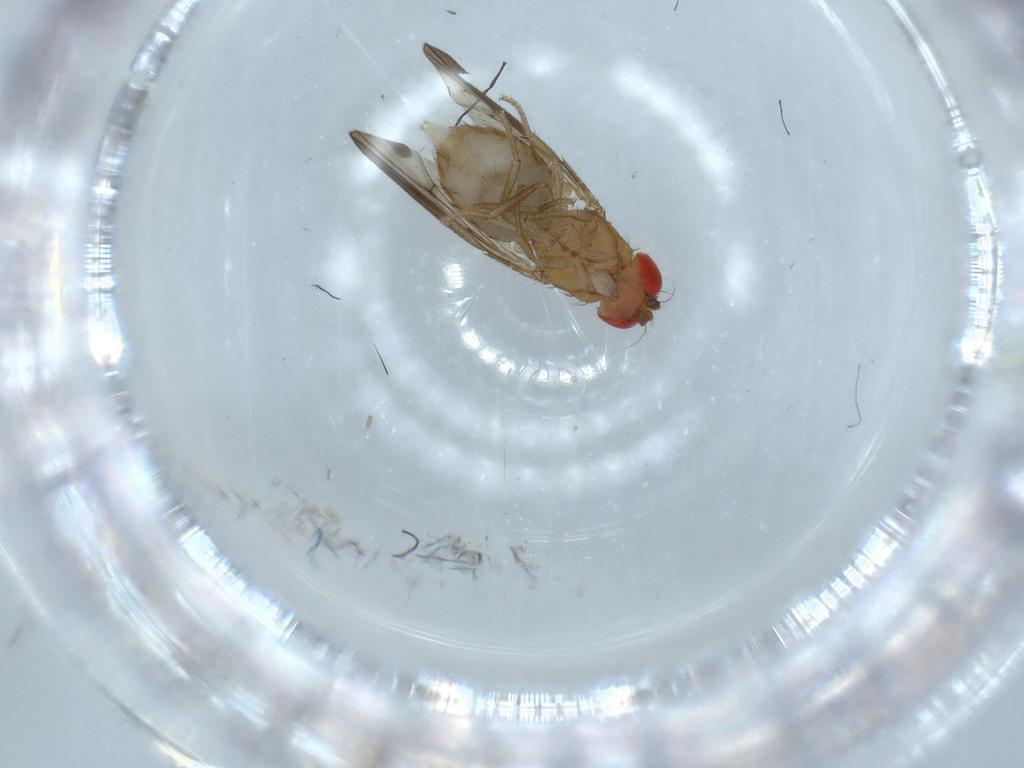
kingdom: Animalia
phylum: Arthropoda
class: Insecta
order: Diptera
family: Drosophilidae
